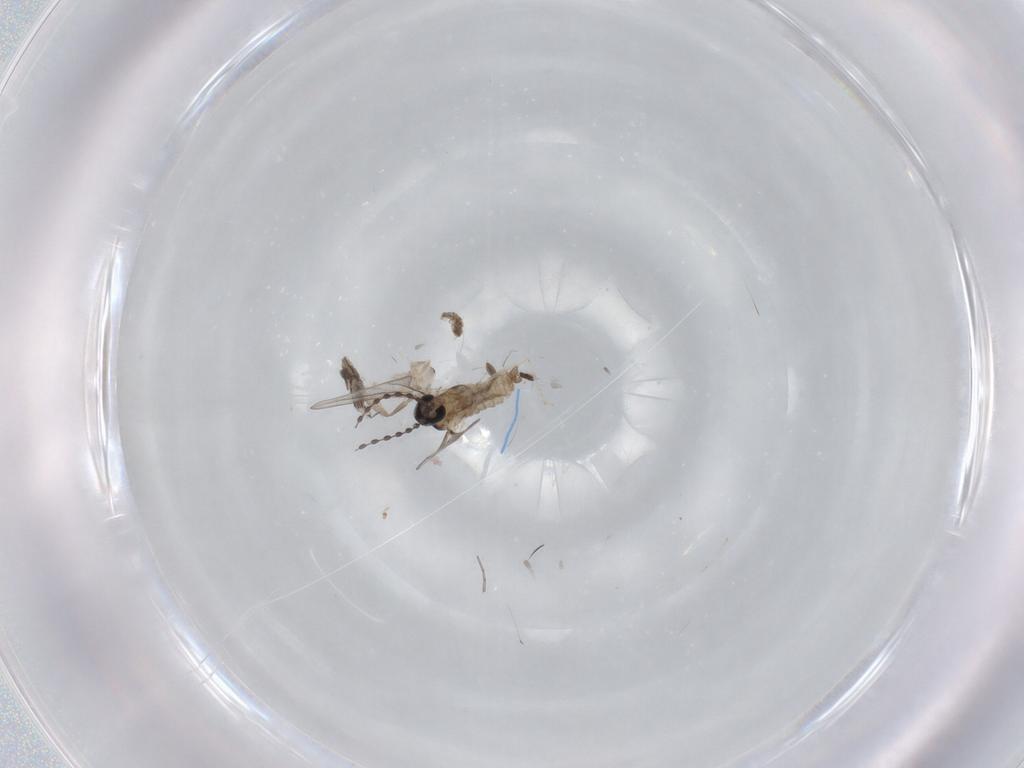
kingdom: Animalia
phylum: Arthropoda
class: Insecta
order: Diptera
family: Cecidomyiidae
